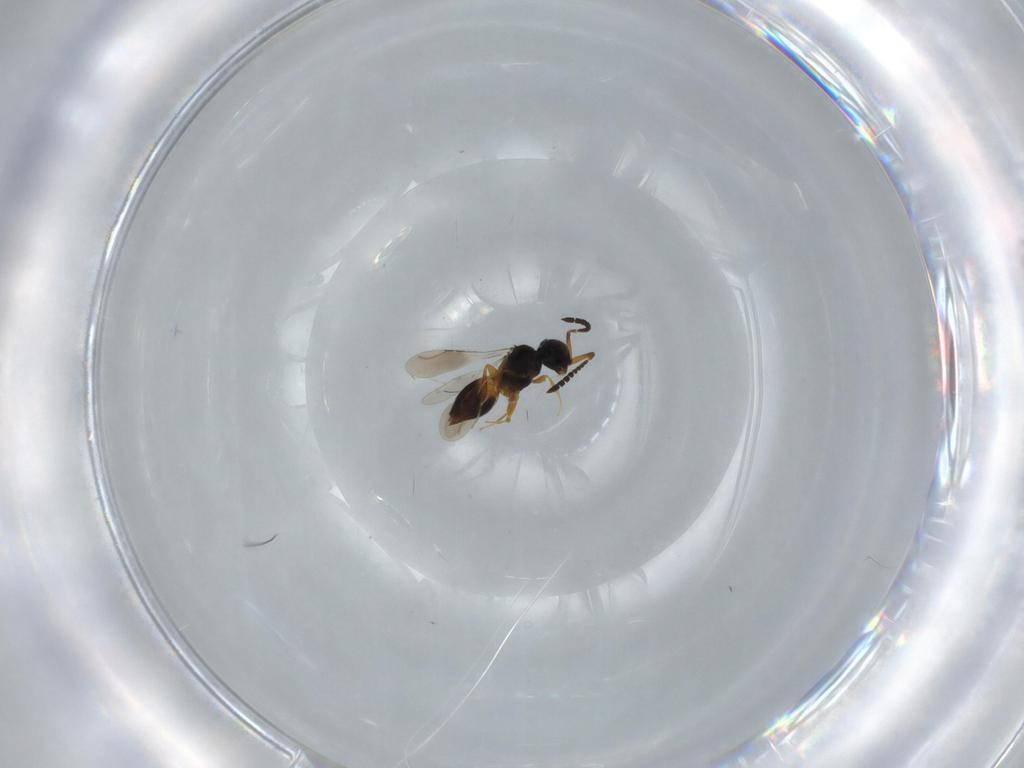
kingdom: Animalia
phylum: Arthropoda
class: Insecta
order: Hymenoptera
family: Bembicidae
